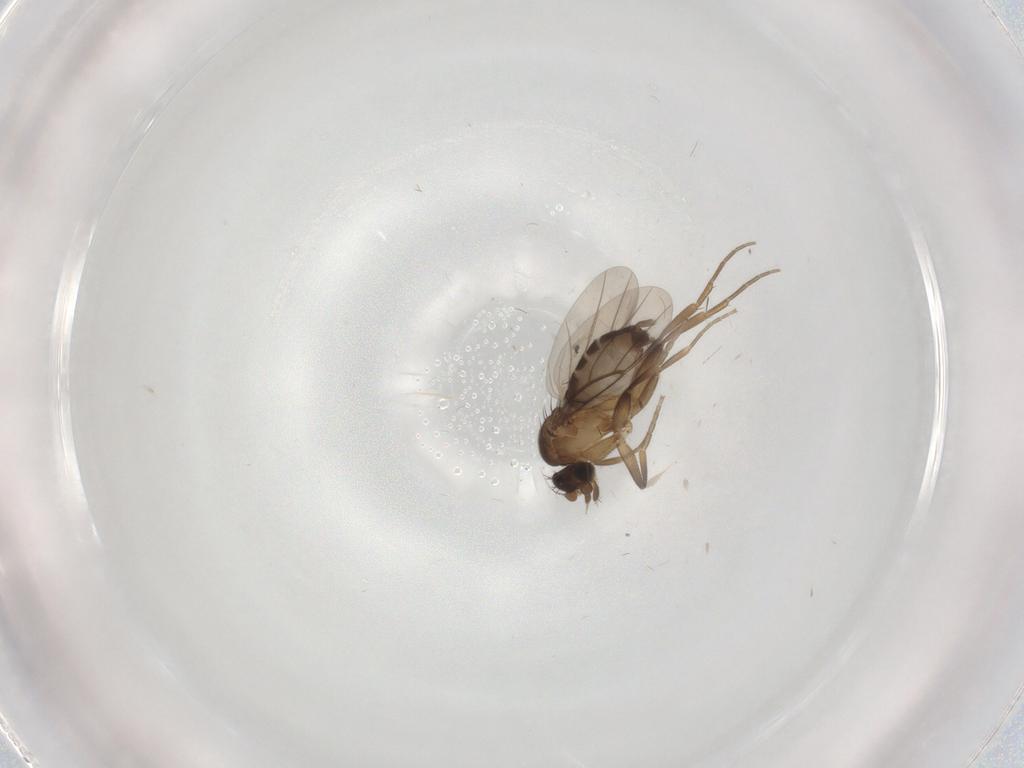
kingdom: Animalia
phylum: Arthropoda
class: Insecta
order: Diptera
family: Phoridae
